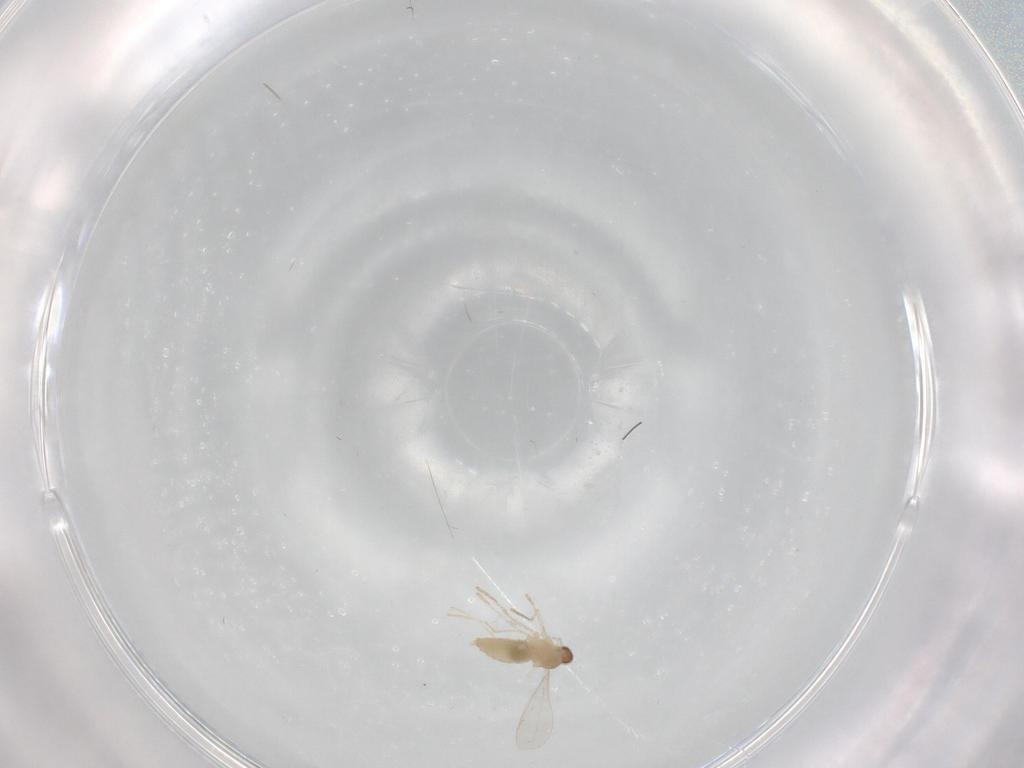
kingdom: Animalia
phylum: Arthropoda
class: Insecta
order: Diptera
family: Cecidomyiidae
